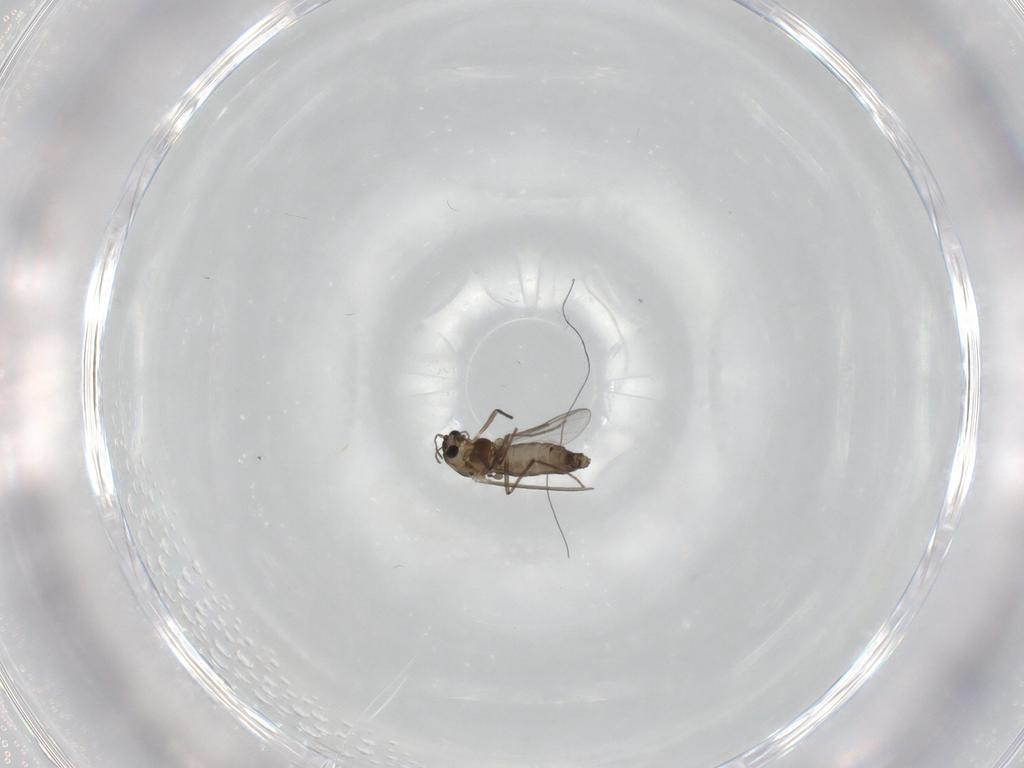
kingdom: Animalia
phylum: Arthropoda
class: Insecta
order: Diptera
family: Chironomidae
